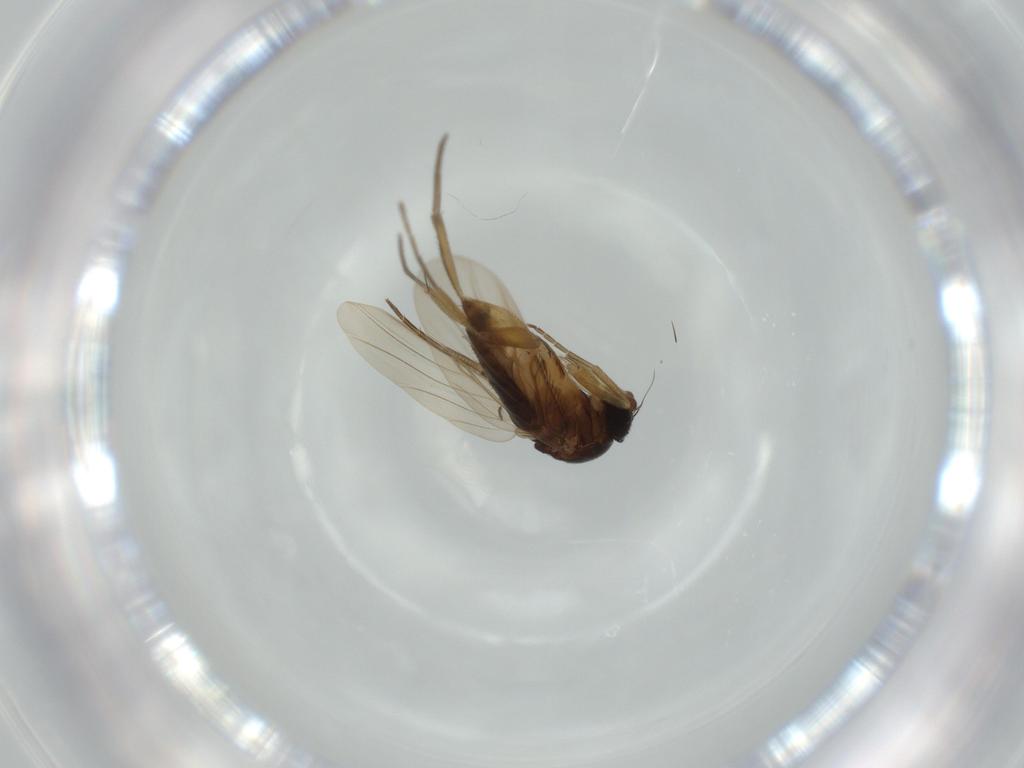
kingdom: Animalia
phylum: Arthropoda
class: Insecta
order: Diptera
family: Phoridae
